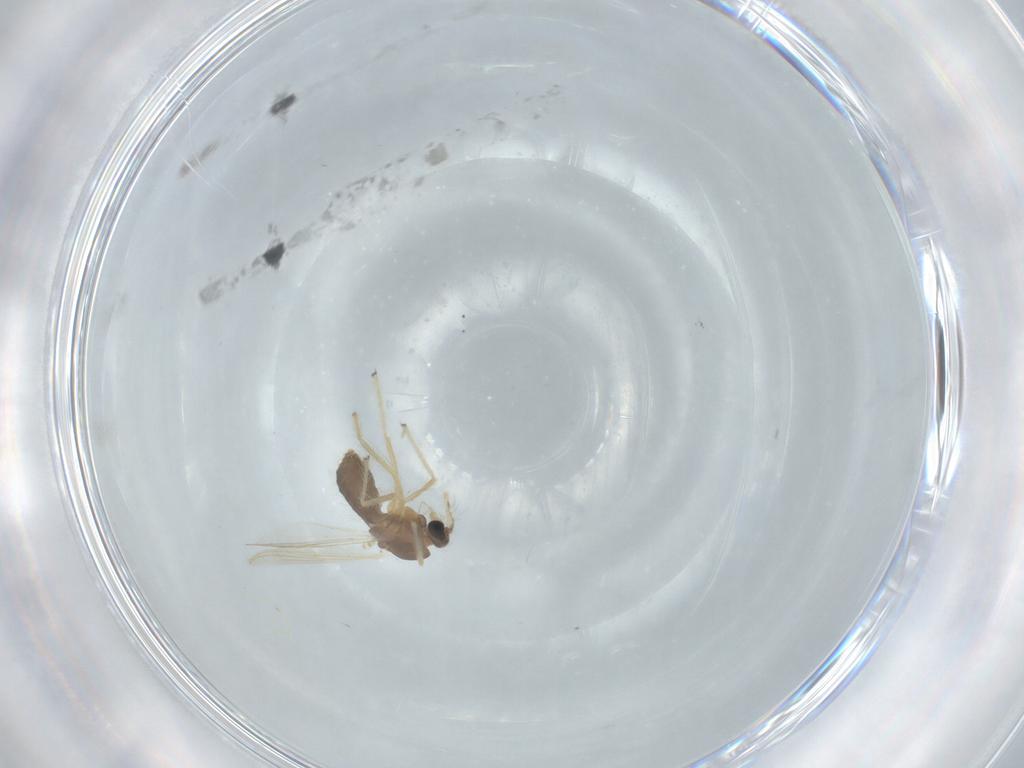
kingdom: Animalia
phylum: Arthropoda
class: Insecta
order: Diptera
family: Chironomidae
